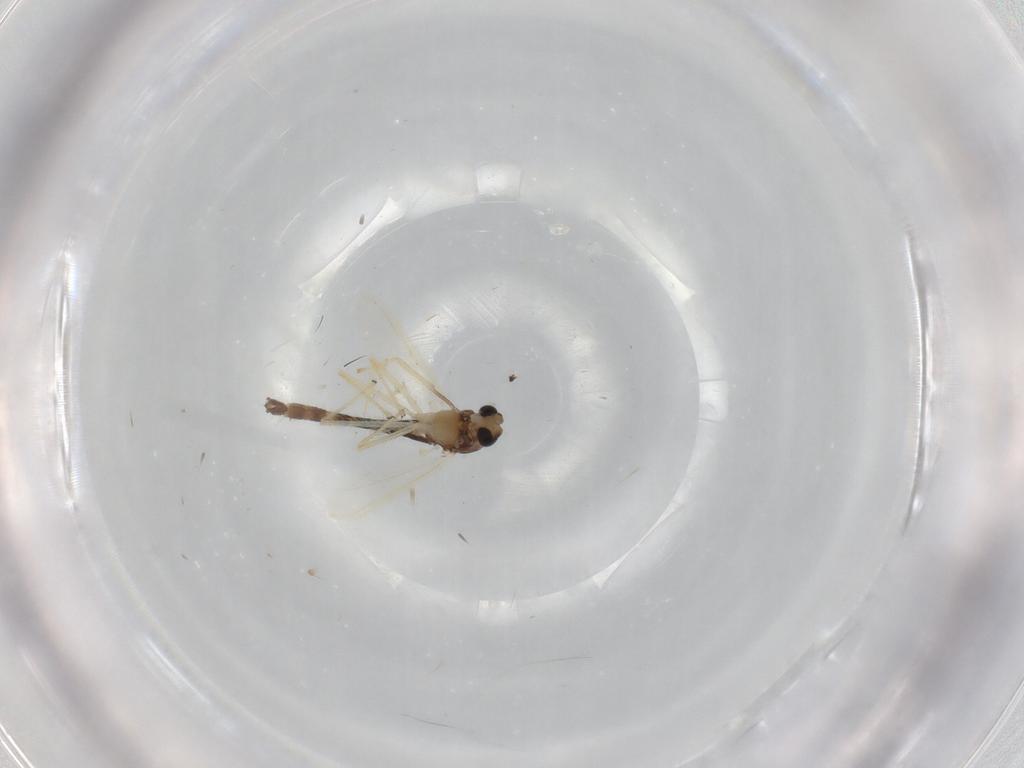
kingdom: Animalia
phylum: Arthropoda
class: Insecta
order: Diptera
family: Sciaridae
